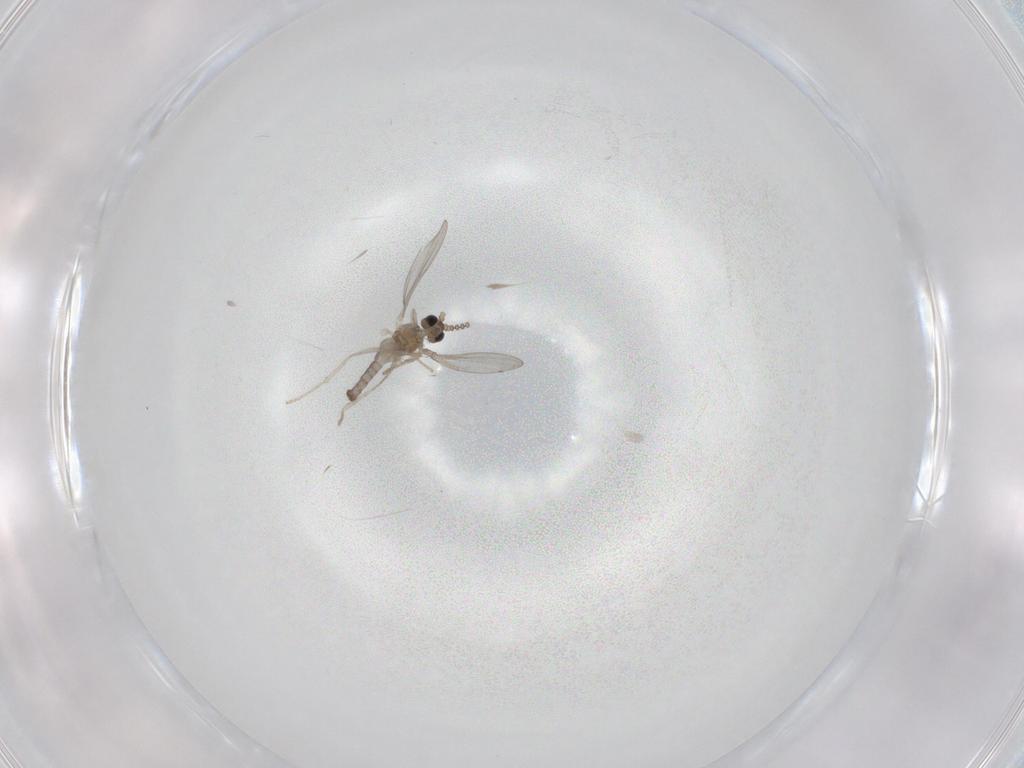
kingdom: Animalia
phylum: Arthropoda
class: Insecta
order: Diptera
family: Cecidomyiidae
